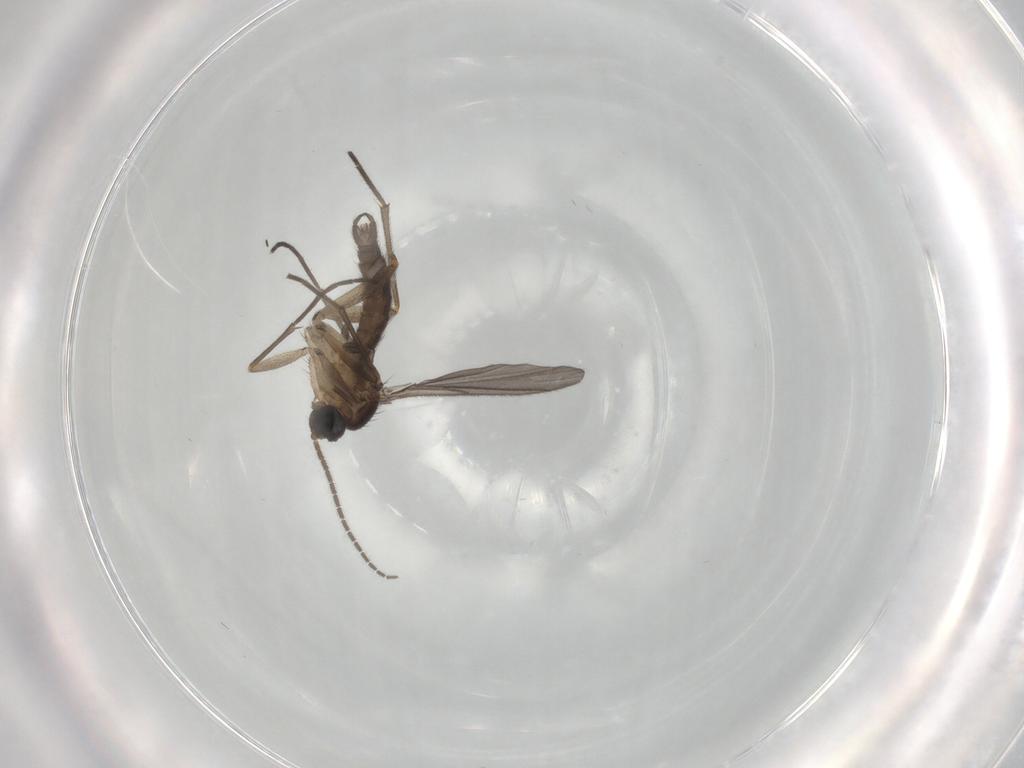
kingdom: Animalia
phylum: Arthropoda
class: Insecta
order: Diptera
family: Sciaridae
